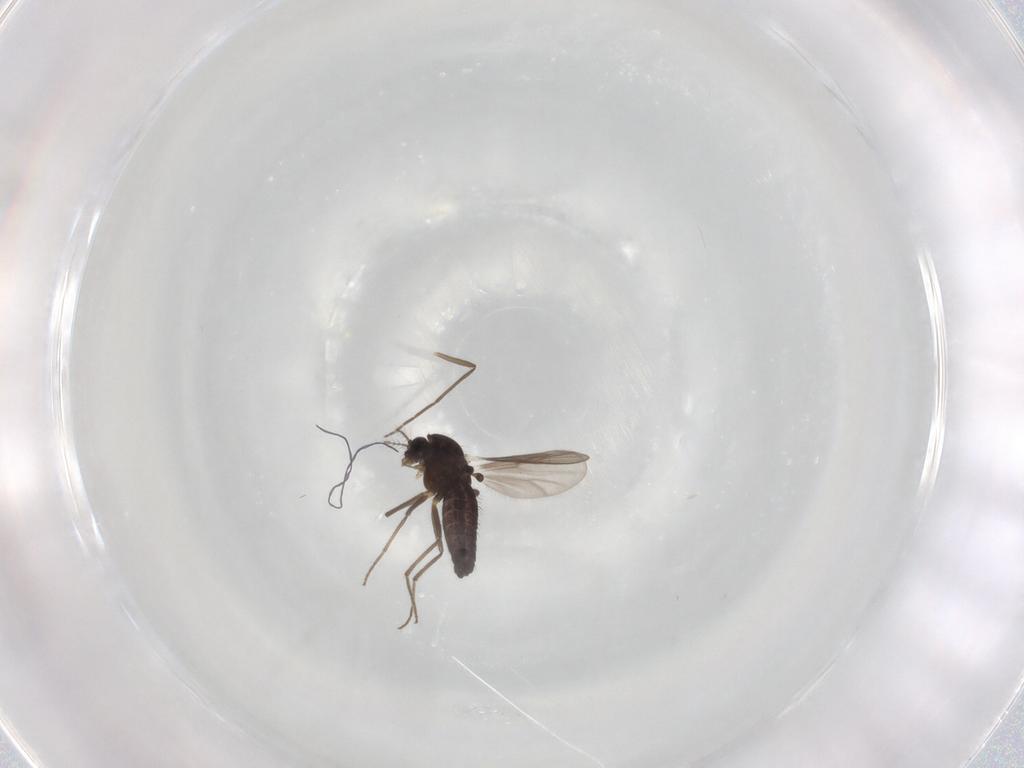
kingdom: Animalia
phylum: Arthropoda
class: Insecta
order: Diptera
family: Chironomidae
